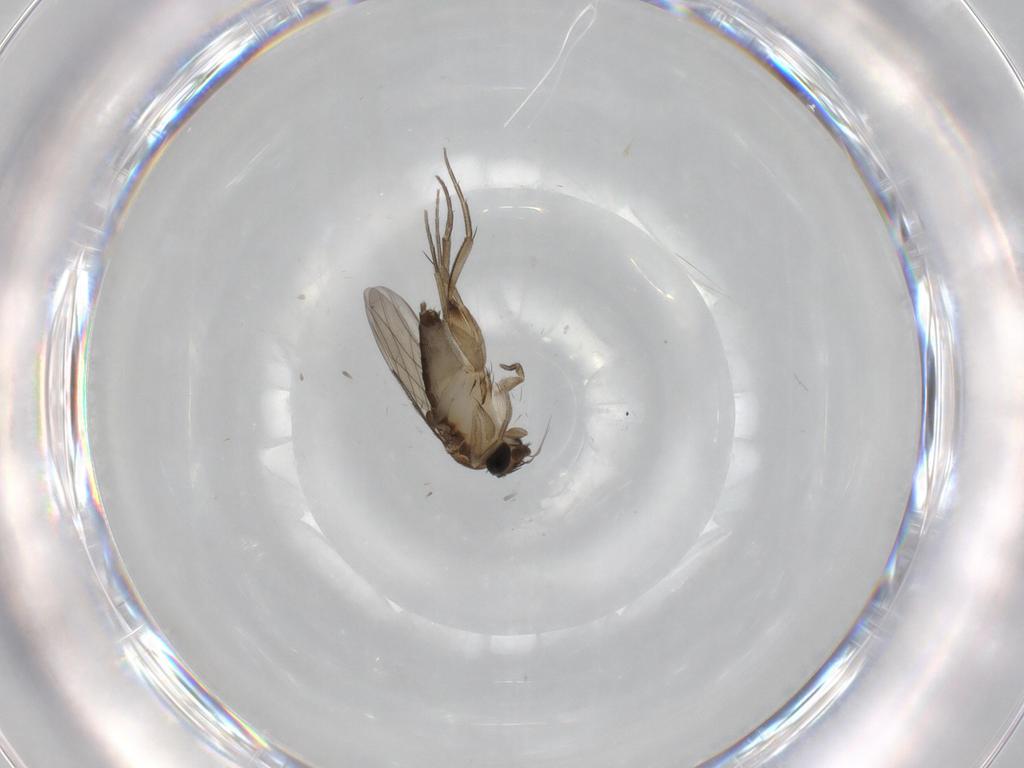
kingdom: Animalia
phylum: Arthropoda
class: Insecta
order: Diptera
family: Phoridae
